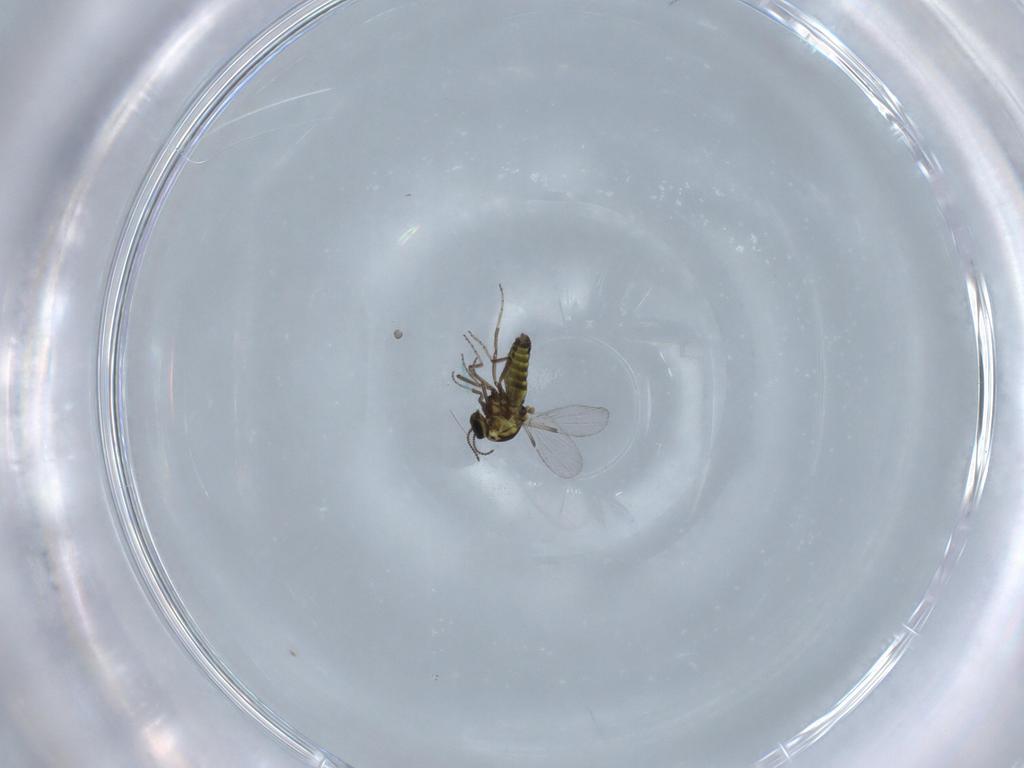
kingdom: Animalia
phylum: Arthropoda
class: Insecta
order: Diptera
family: Ceratopogonidae
